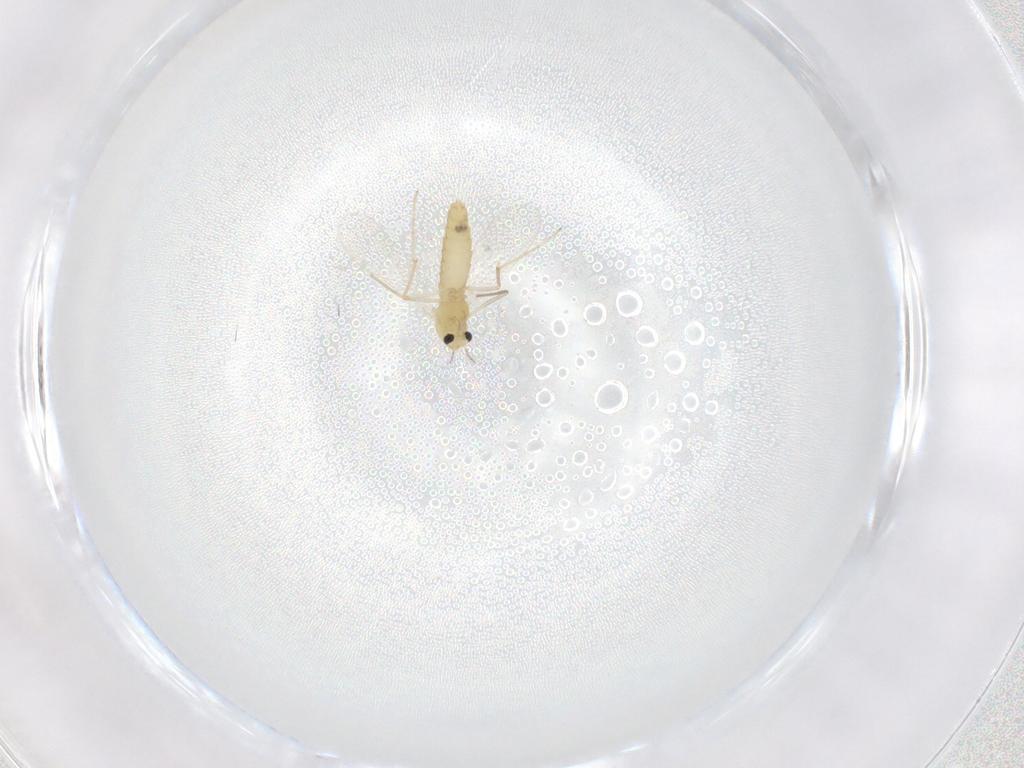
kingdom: Animalia
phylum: Arthropoda
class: Insecta
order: Diptera
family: Chironomidae
